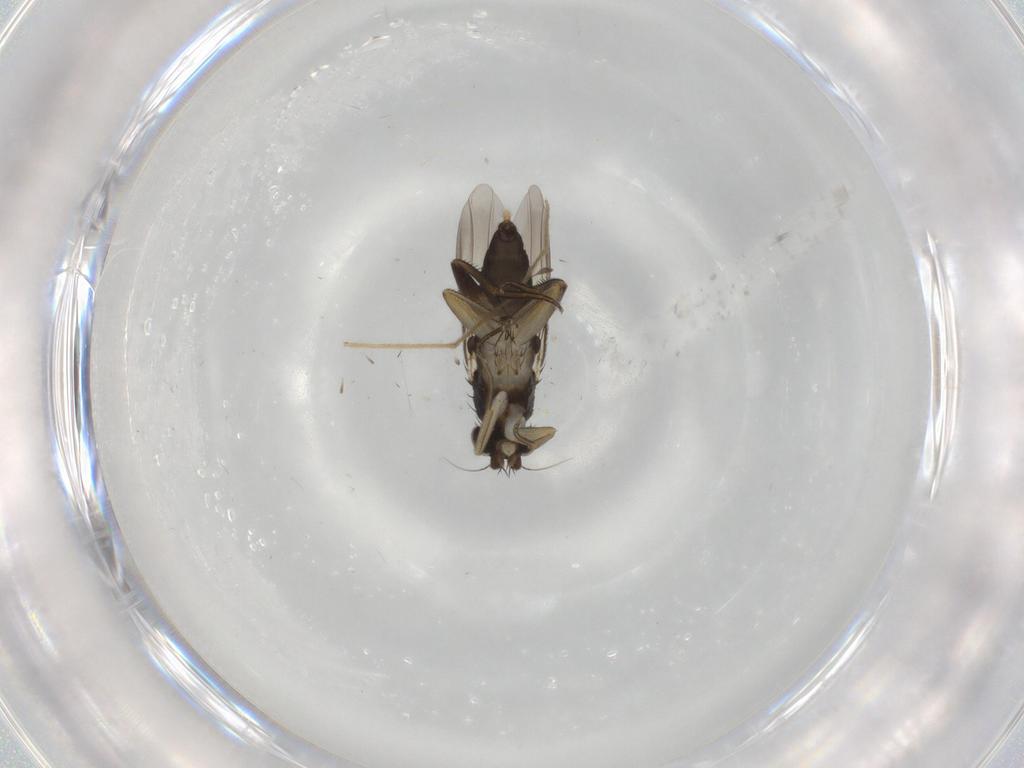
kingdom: Animalia
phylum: Arthropoda
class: Insecta
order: Diptera
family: Phoridae
